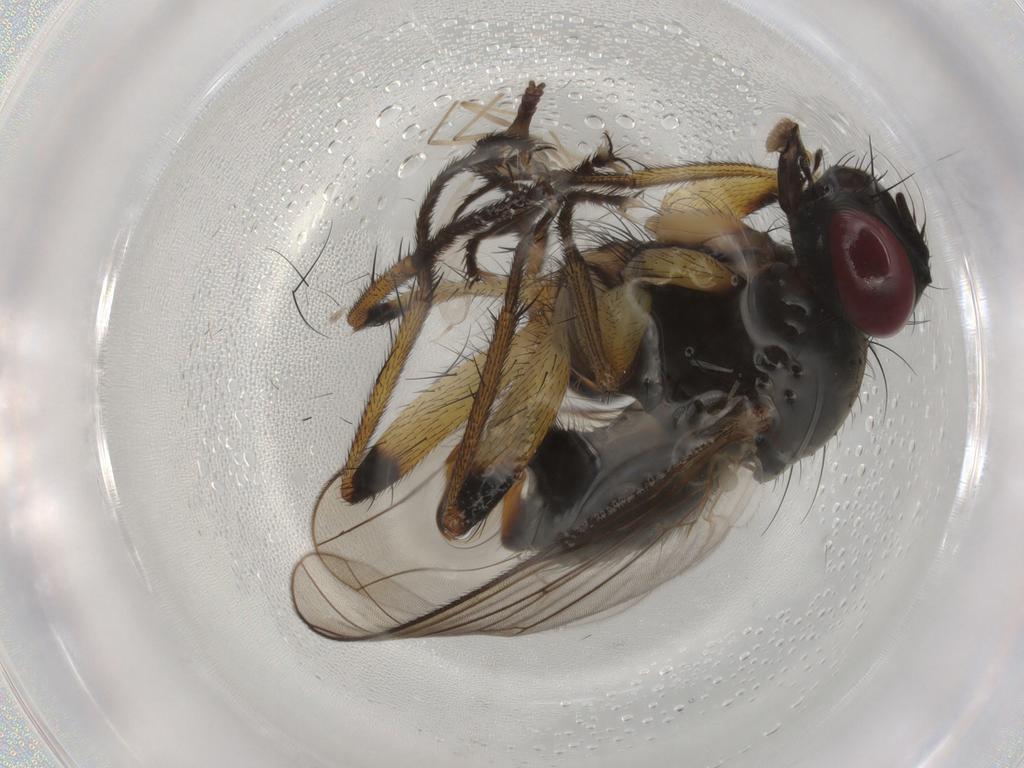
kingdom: Animalia
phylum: Arthropoda
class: Insecta
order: Diptera
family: Muscidae
